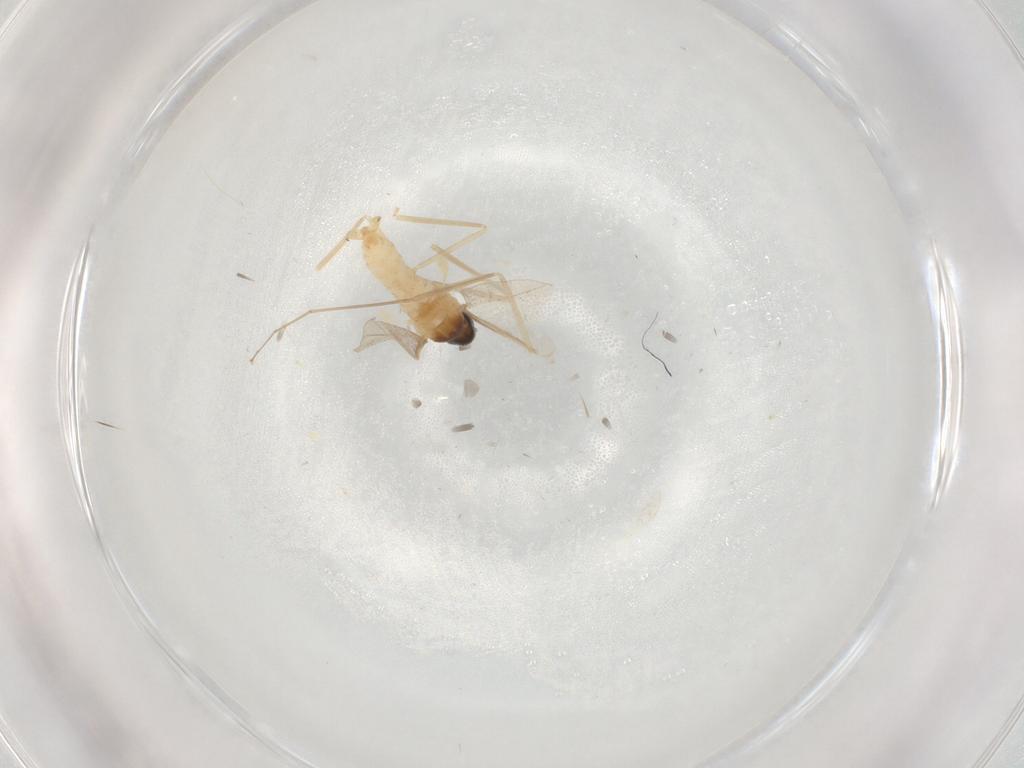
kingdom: Animalia
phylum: Arthropoda
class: Insecta
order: Diptera
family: Cecidomyiidae
